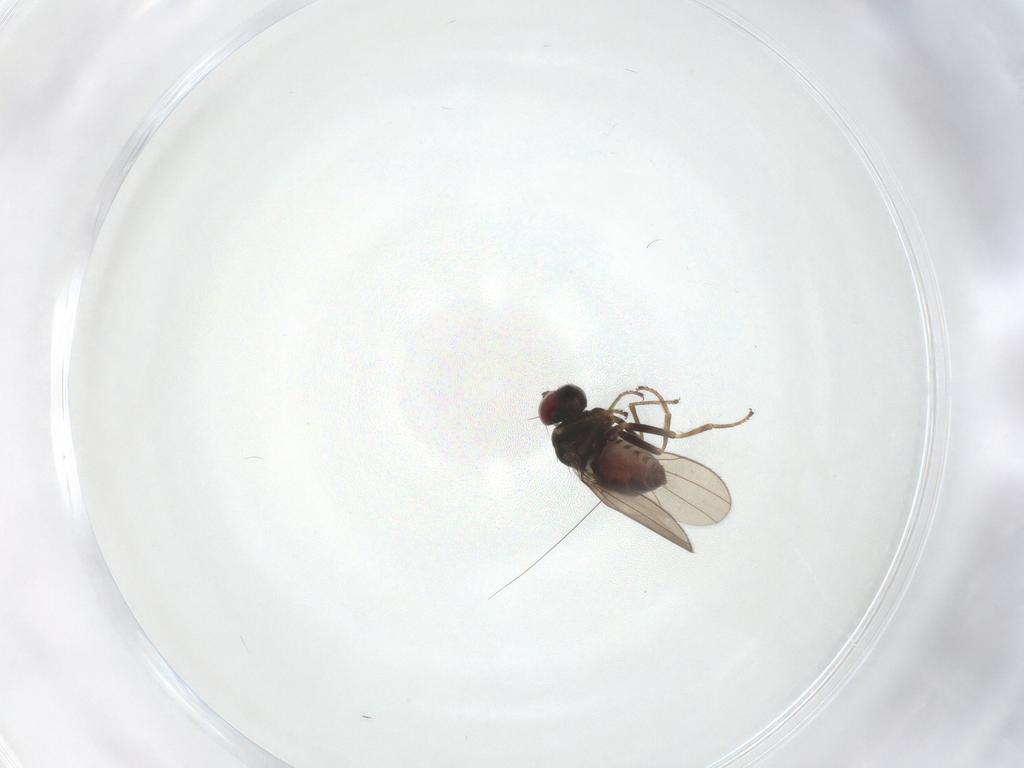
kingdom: Animalia
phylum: Arthropoda
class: Insecta
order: Diptera
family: Ephydridae
